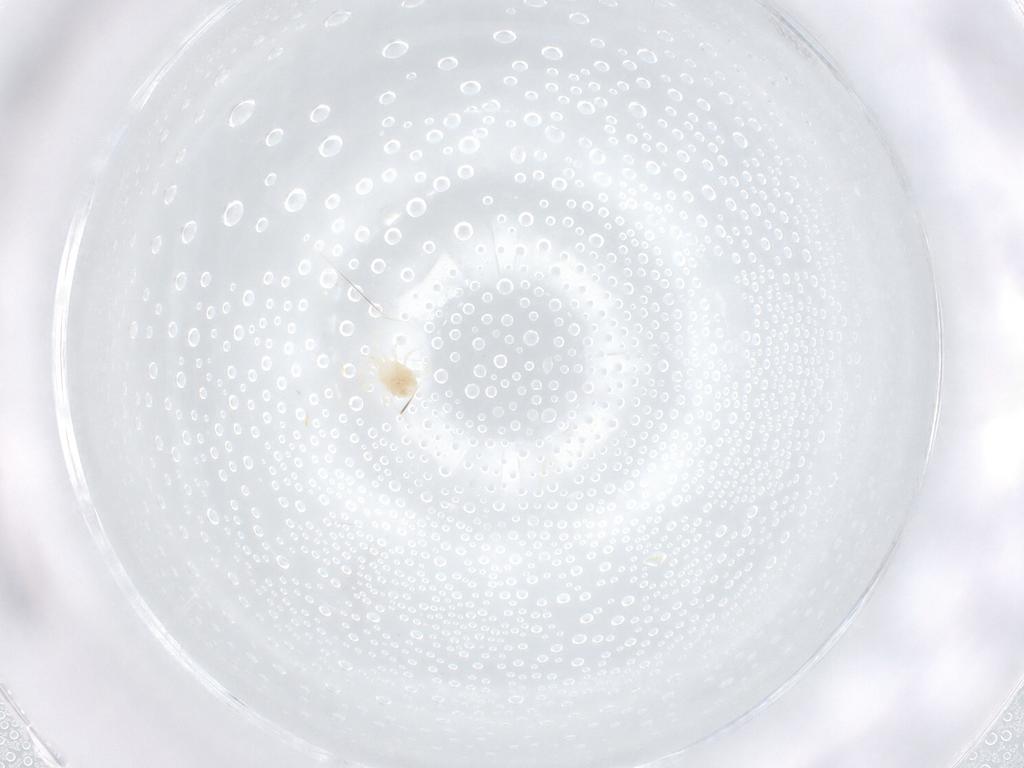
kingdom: Animalia
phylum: Arthropoda
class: Arachnida
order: Mesostigmata
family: Melicharidae
